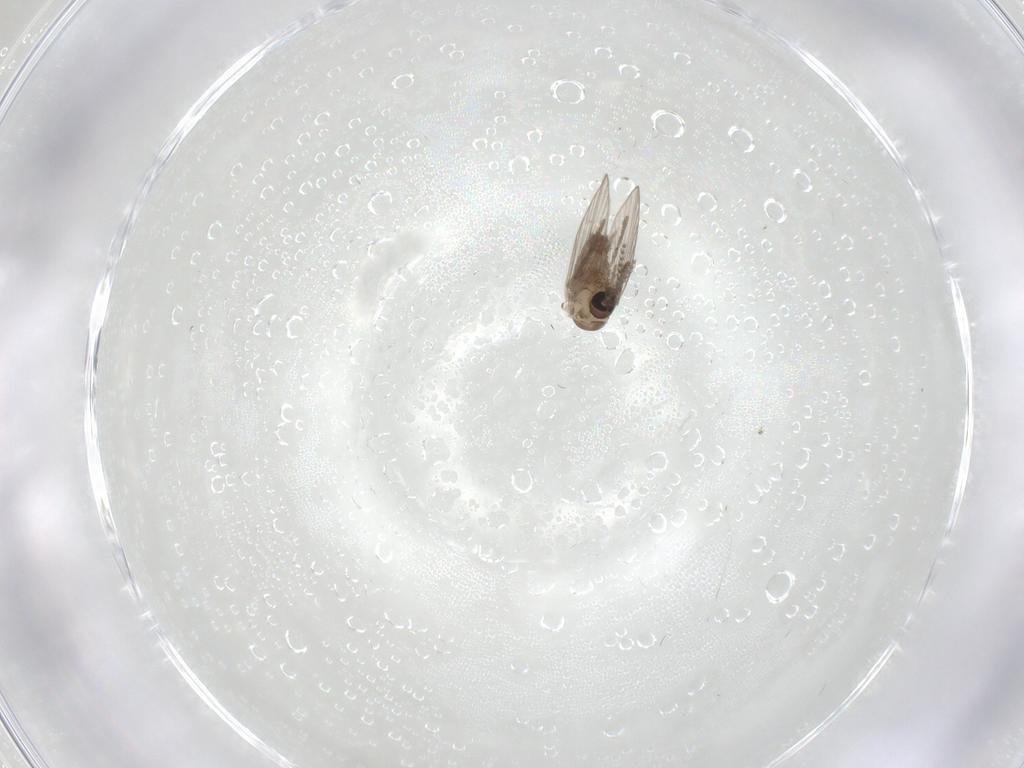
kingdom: Animalia
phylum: Arthropoda
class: Insecta
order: Diptera
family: Psychodidae
